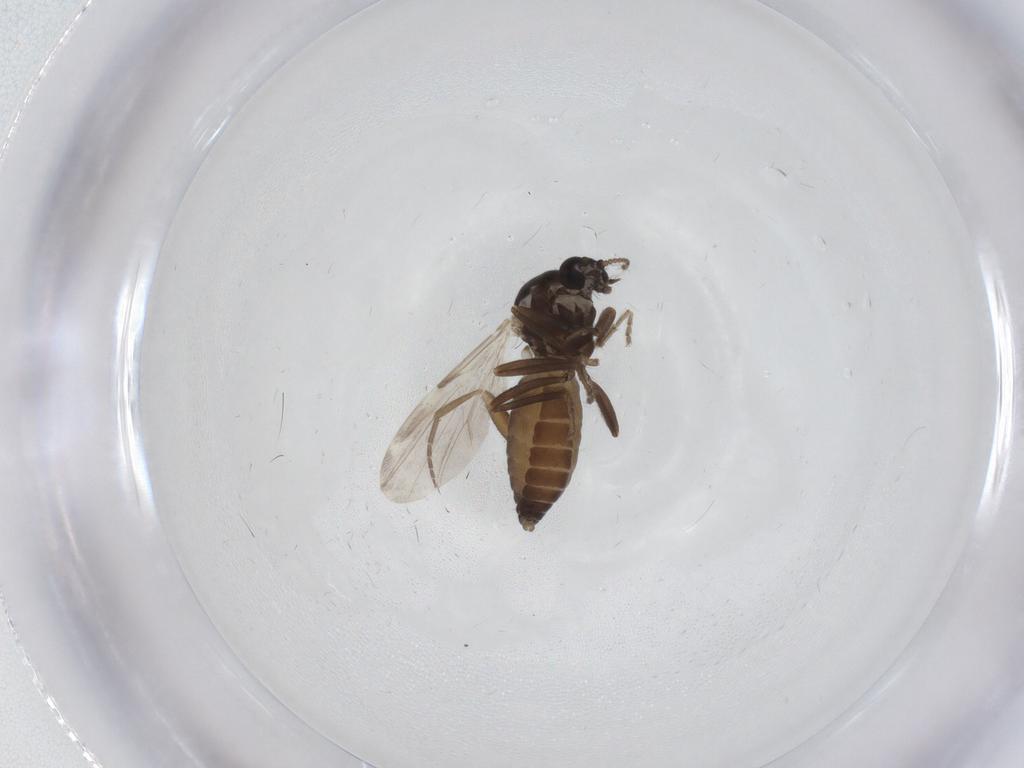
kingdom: Animalia
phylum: Arthropoda
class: Insecta
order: Diptera
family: Ceratopogonidae
